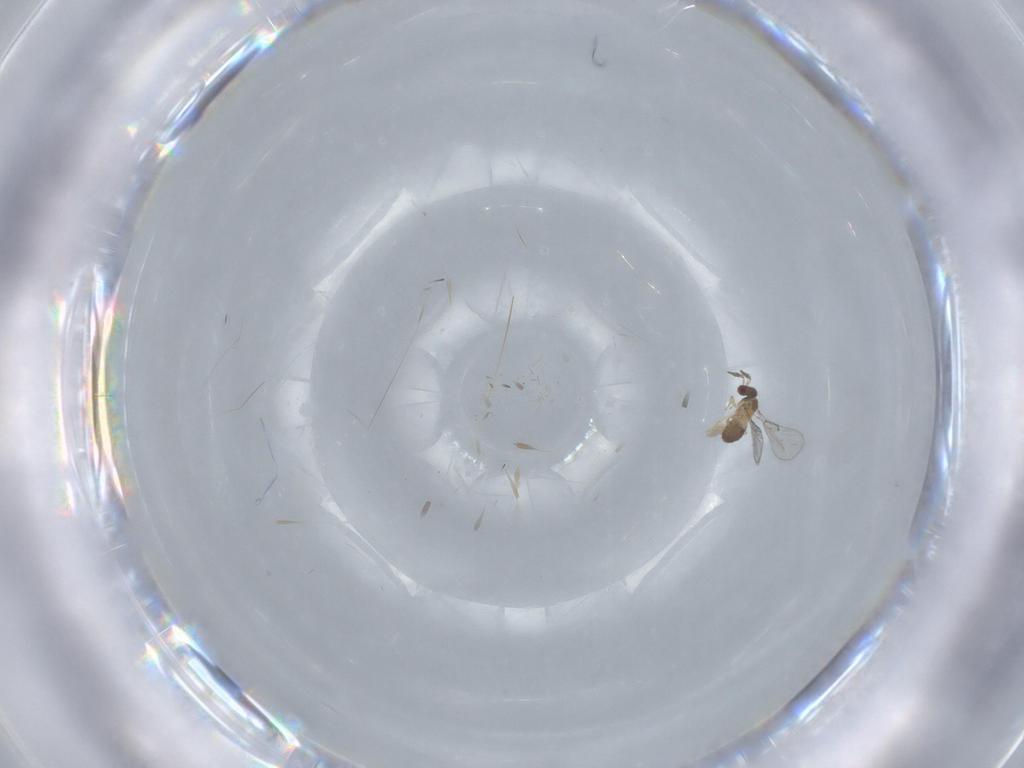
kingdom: Animalia
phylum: Arthropoda
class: Insecta
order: Hymenoptera
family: Trichogrammatidae
